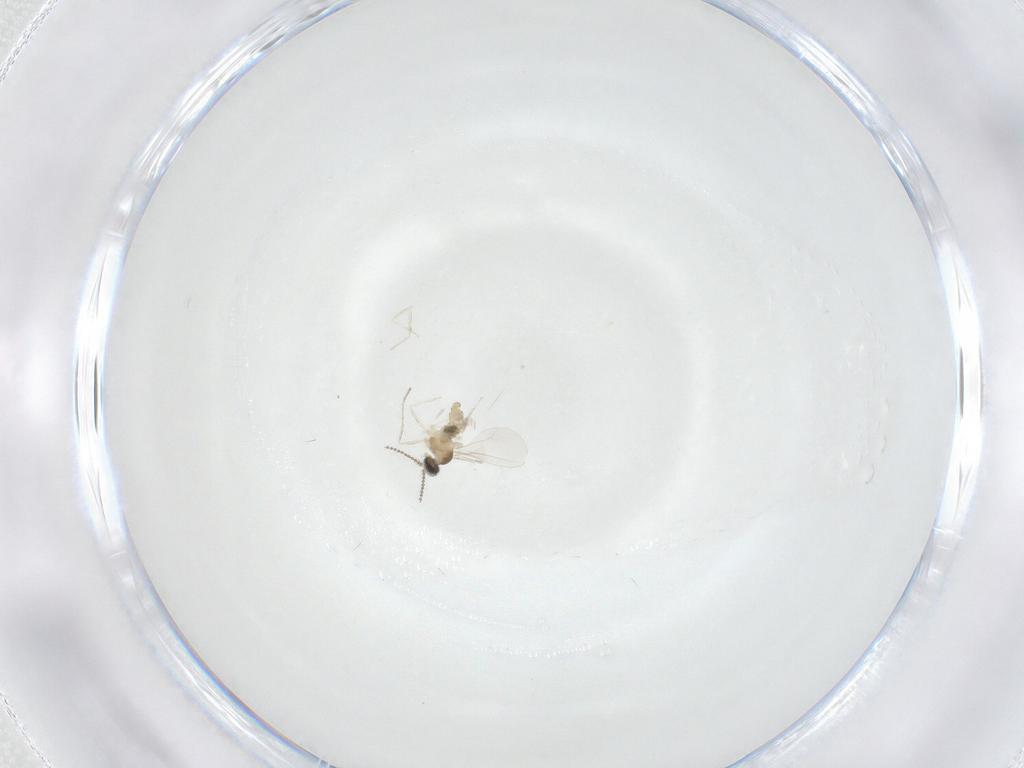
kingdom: Animalia
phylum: Arthropoda
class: Insecta
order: Diptera
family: Cecidomyiidae
